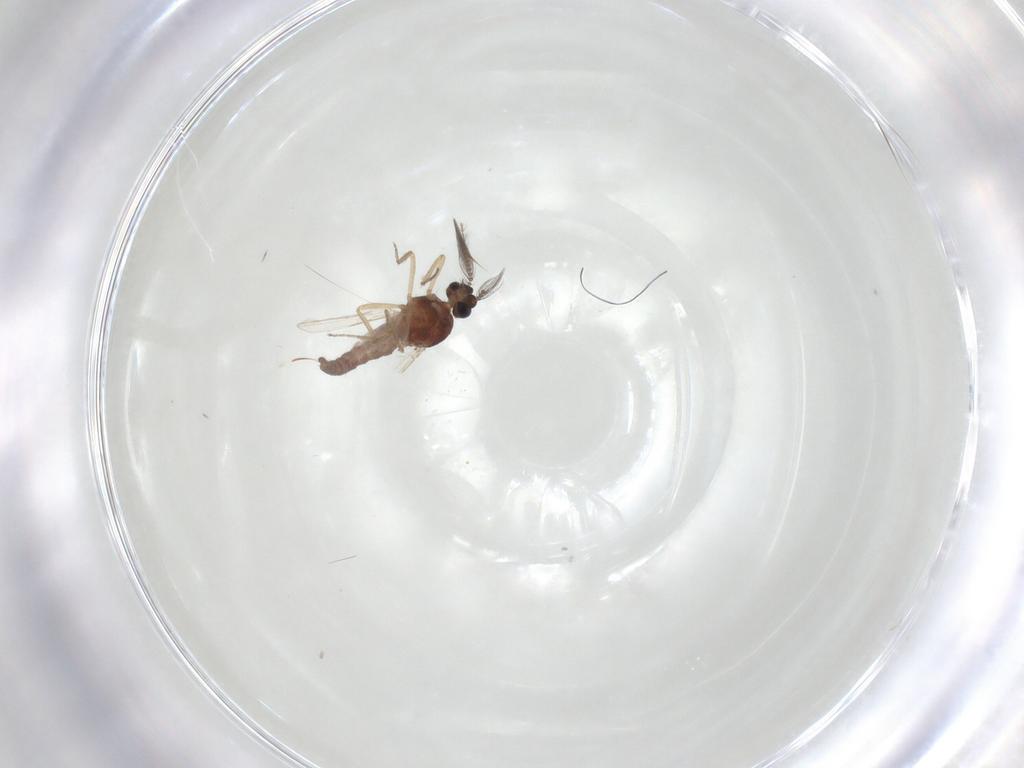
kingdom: Animalia
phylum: Arthropoda
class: Insecta
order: Diptera
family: Ceratopogonidae
